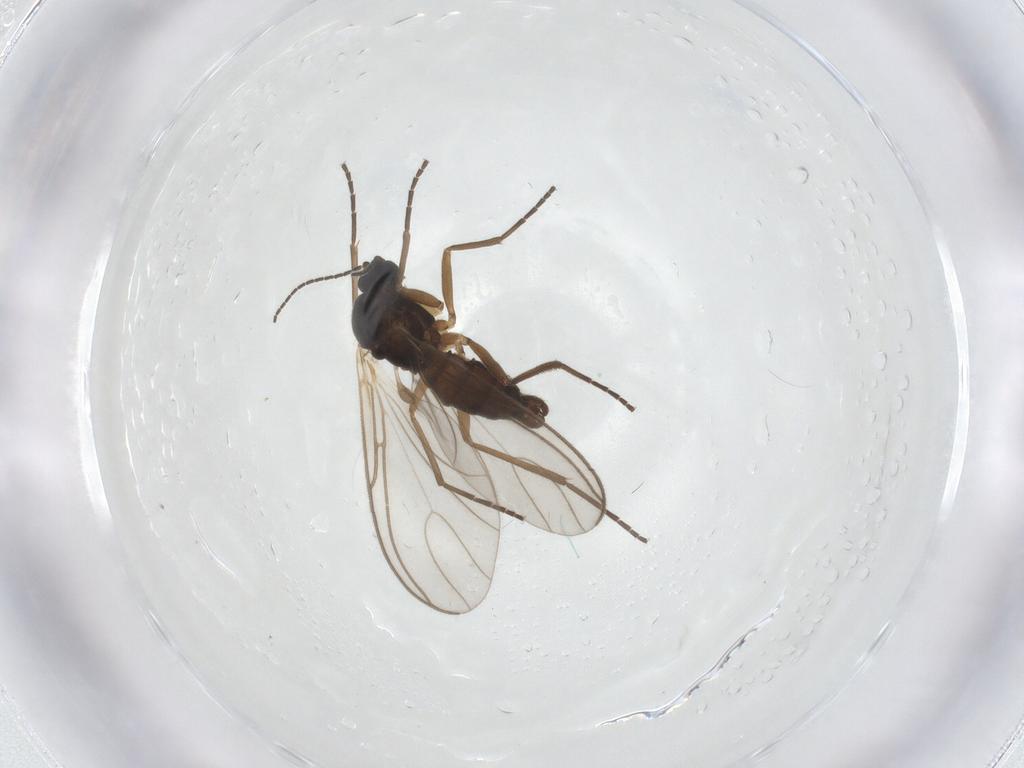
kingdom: Animalia
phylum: Arthropoda
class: Insecta
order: Diptera
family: Sciaridae
